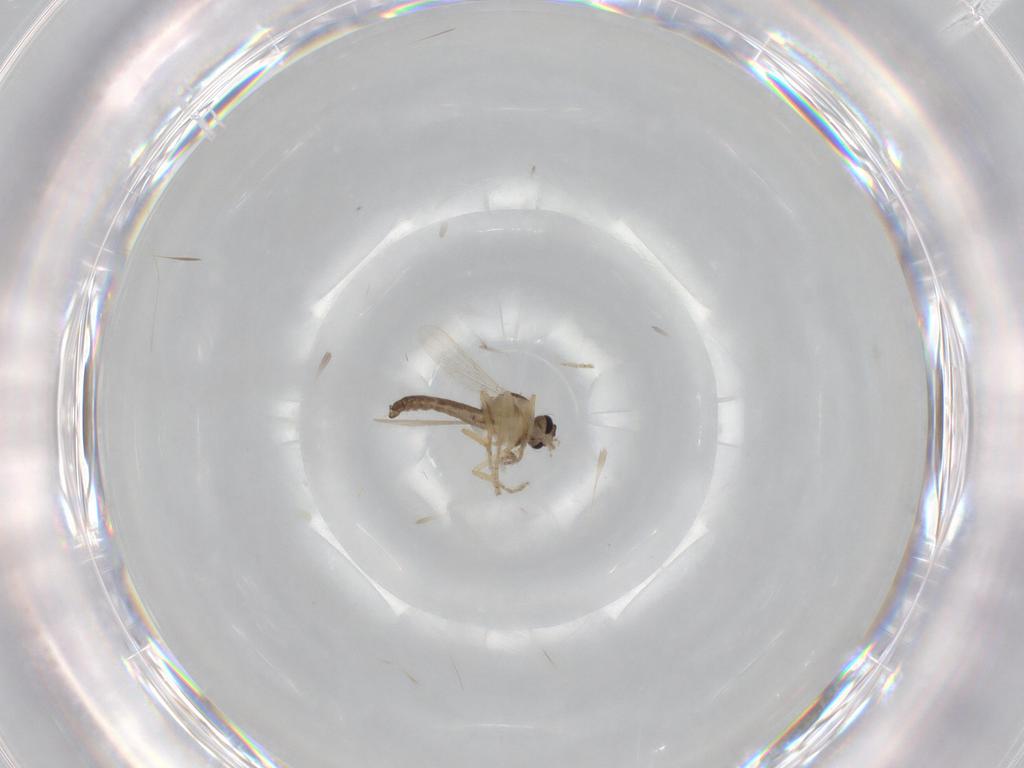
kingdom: Animalia
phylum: Arthropoda
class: Insecta
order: Diptera
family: Ceratopogonidae
